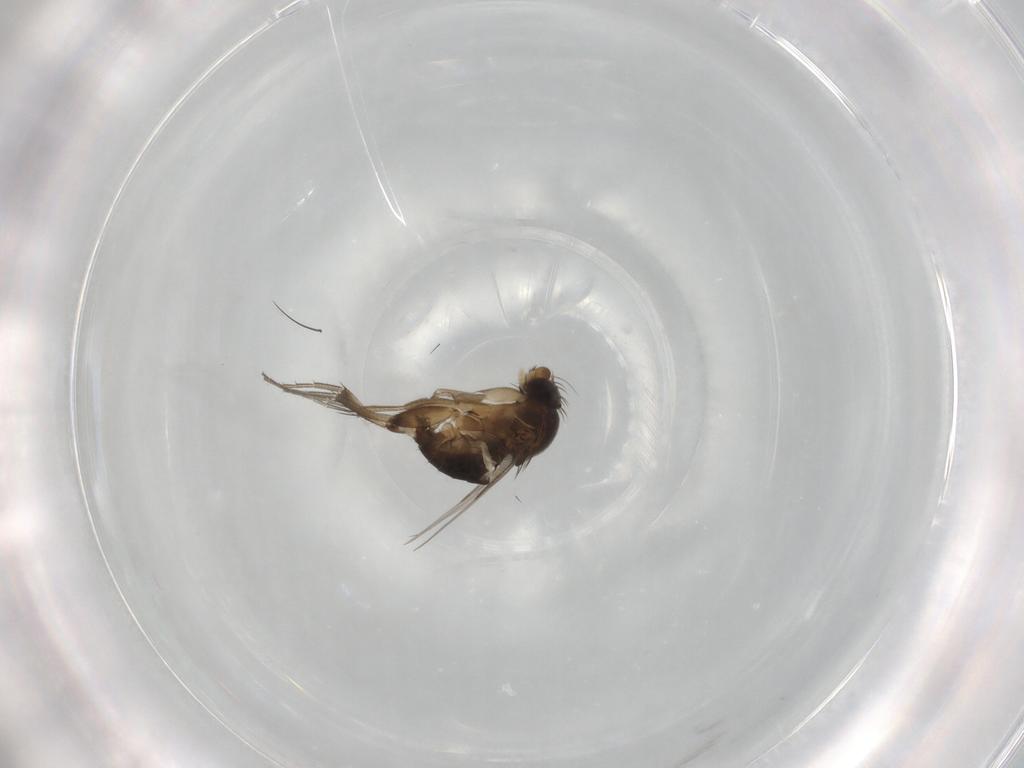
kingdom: Animalia
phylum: Arthropoda
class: Insecta
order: Diptera
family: Phoridae
